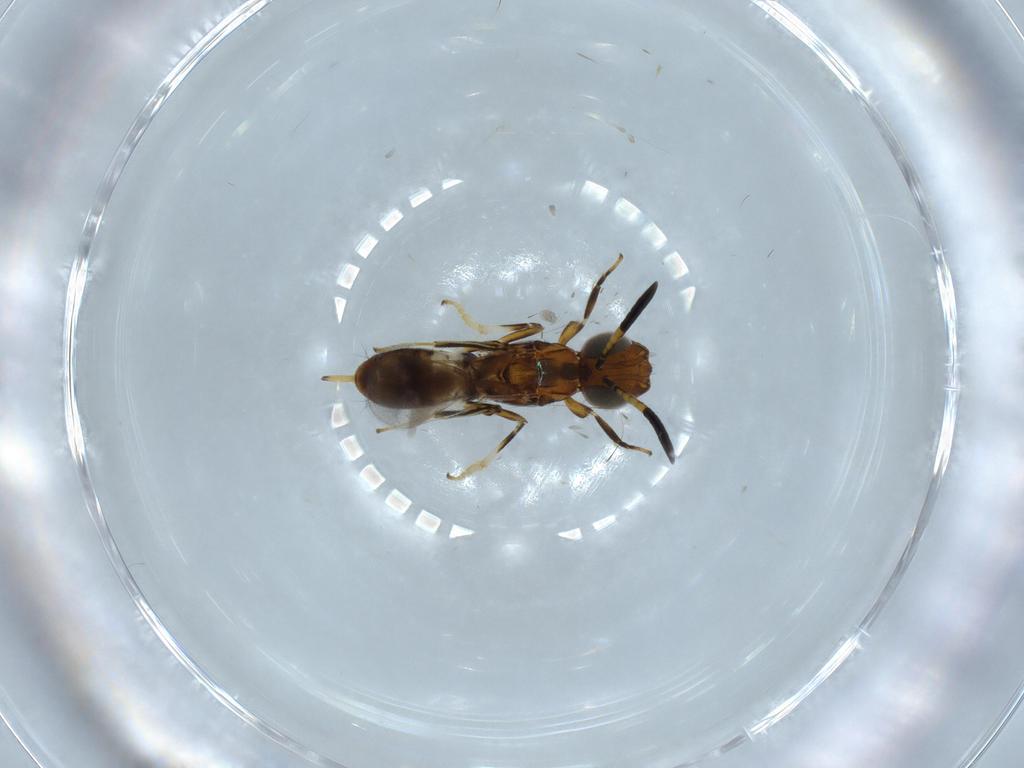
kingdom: Animalia
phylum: Arthropoda
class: Insecta
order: Hymenoptera
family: Eupelmidae
